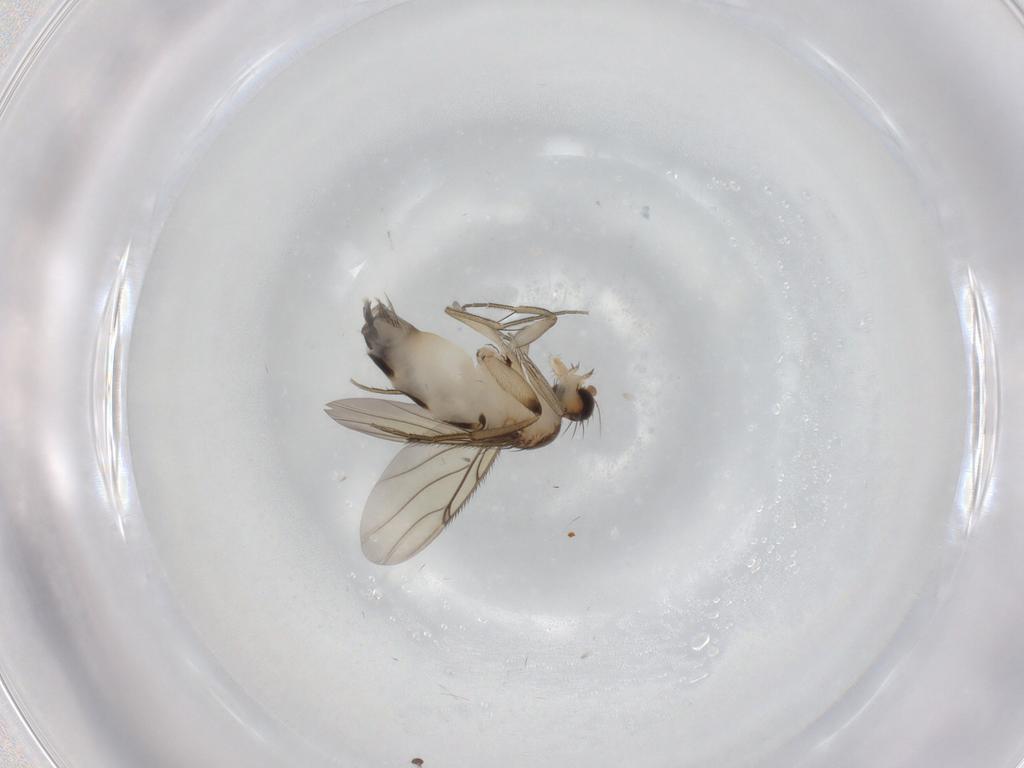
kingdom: Animalia
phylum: Arthropoda
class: Insecta
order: Diptera
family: Phoridae
